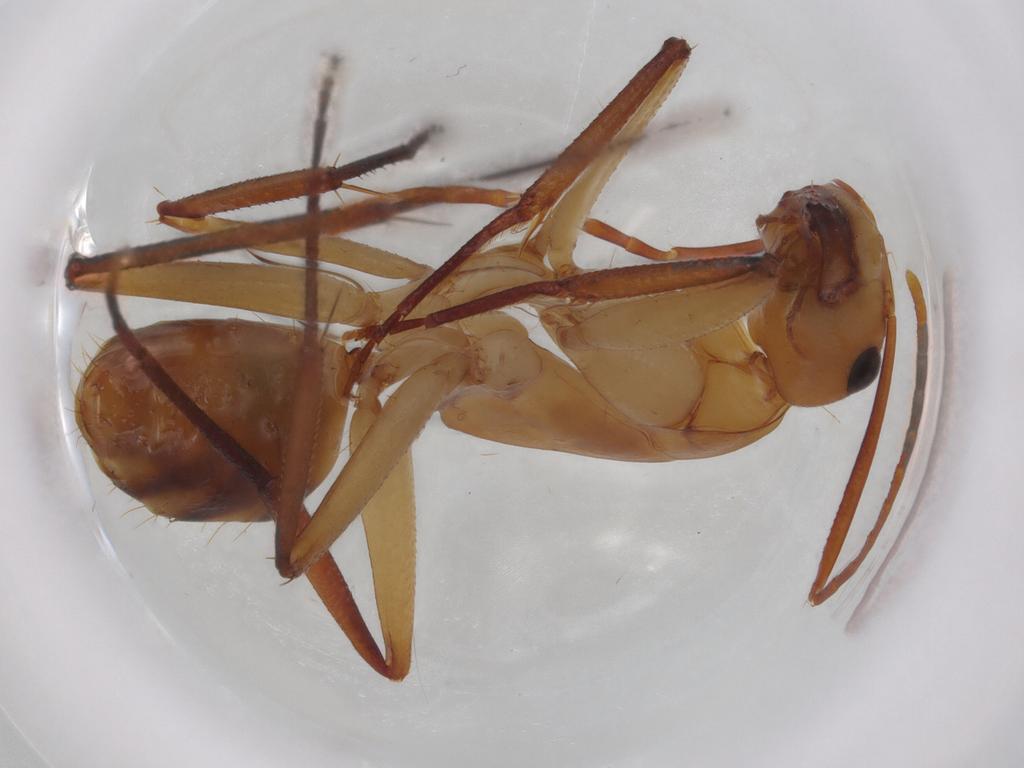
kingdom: Animalia
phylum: Arthropoda
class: Insecta
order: Hymenoptera
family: Formicidae
